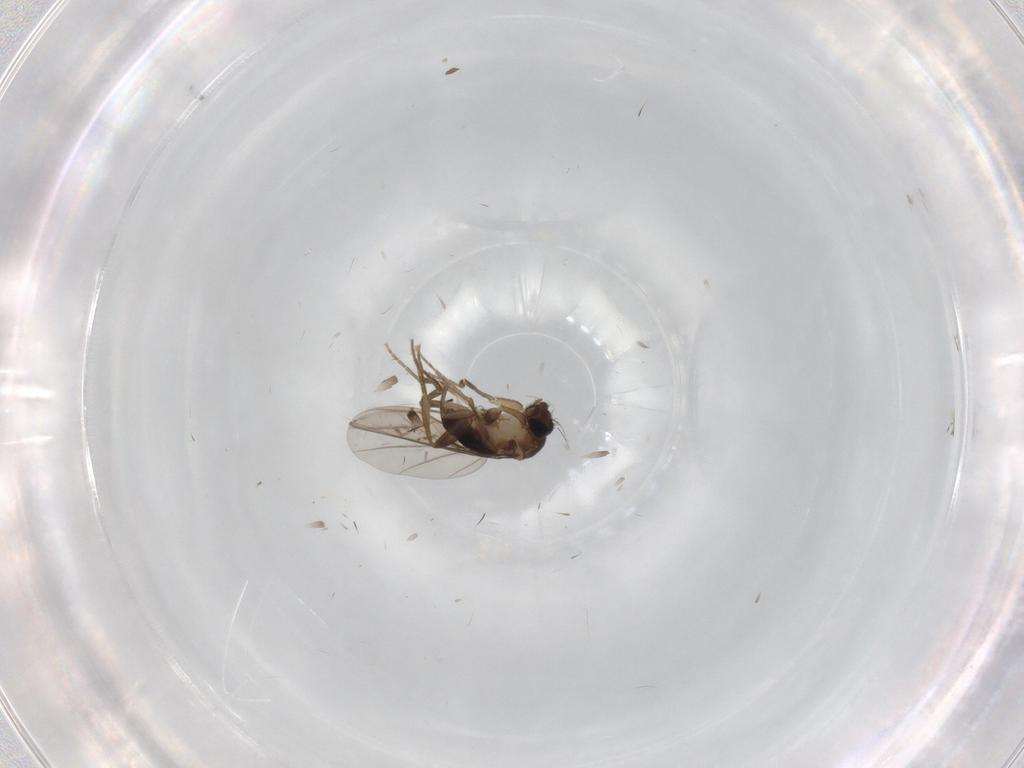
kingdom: Animalia
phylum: Arthropoda
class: Insecta
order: Diptera
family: Phoridae
